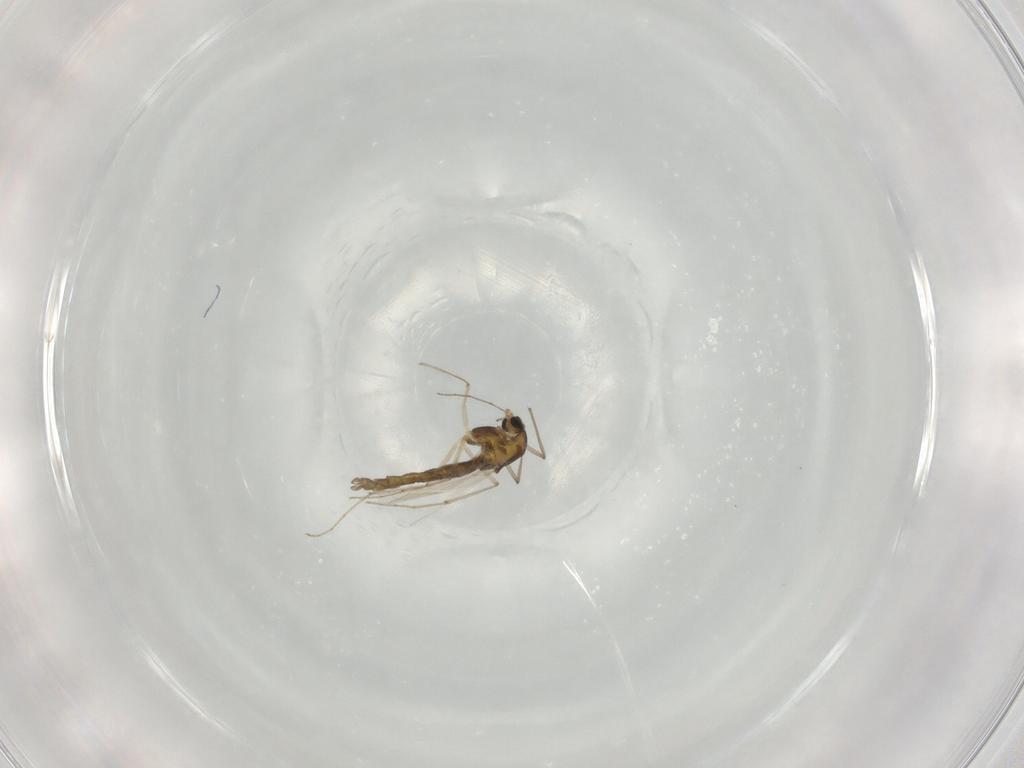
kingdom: Animalia
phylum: Arthropoda
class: Insecta
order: Diptera
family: Chironomidae
